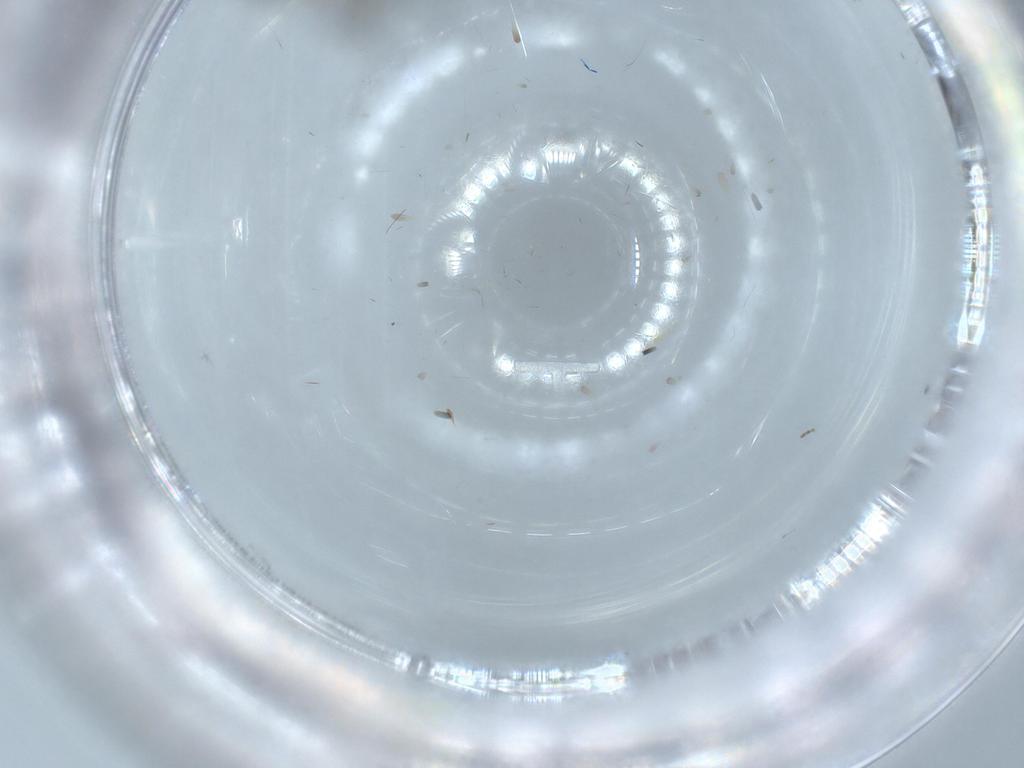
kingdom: Animalia
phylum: Arthropoda
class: Insecta
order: Diptera
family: Sciaridae
